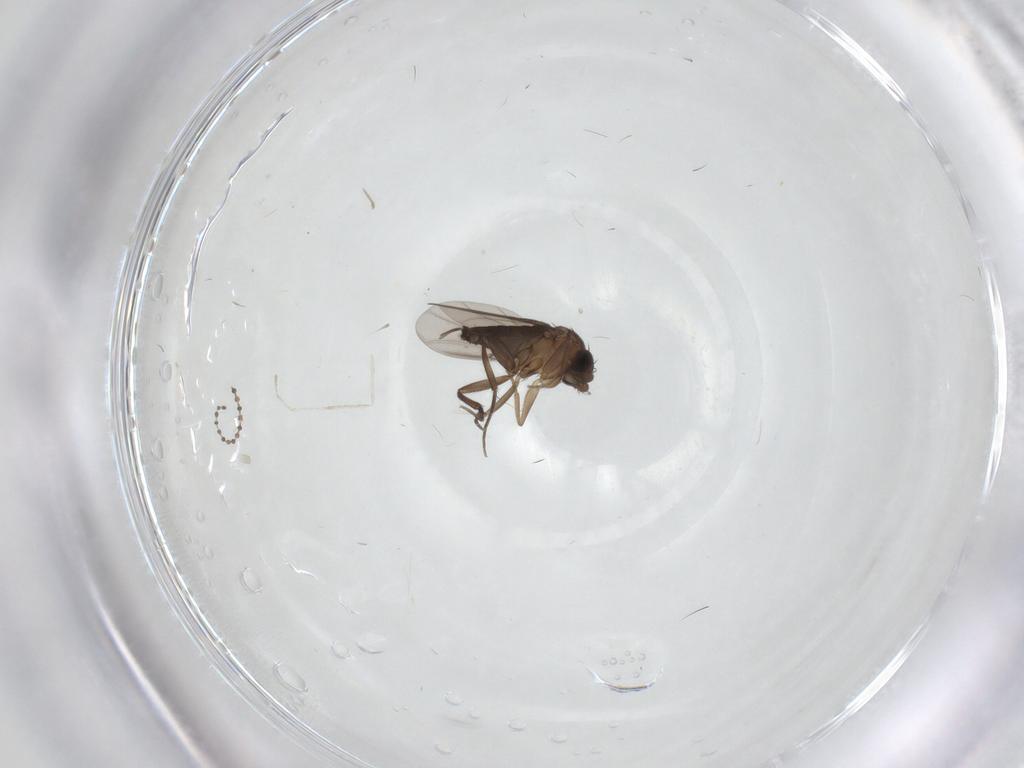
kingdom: Animalia
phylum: Arthropoda
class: Insecta
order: Diptera
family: Phoridae
